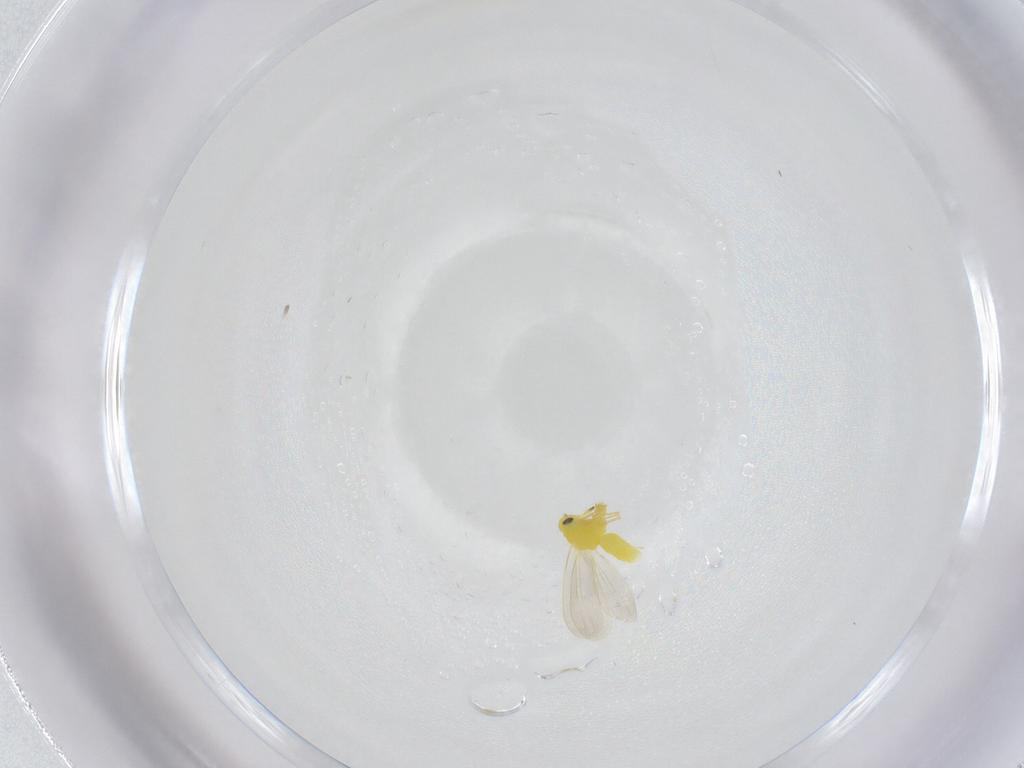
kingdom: Animalia
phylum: Arthropoda
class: Insecta
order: Hemiptera
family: Aleyrodidae
